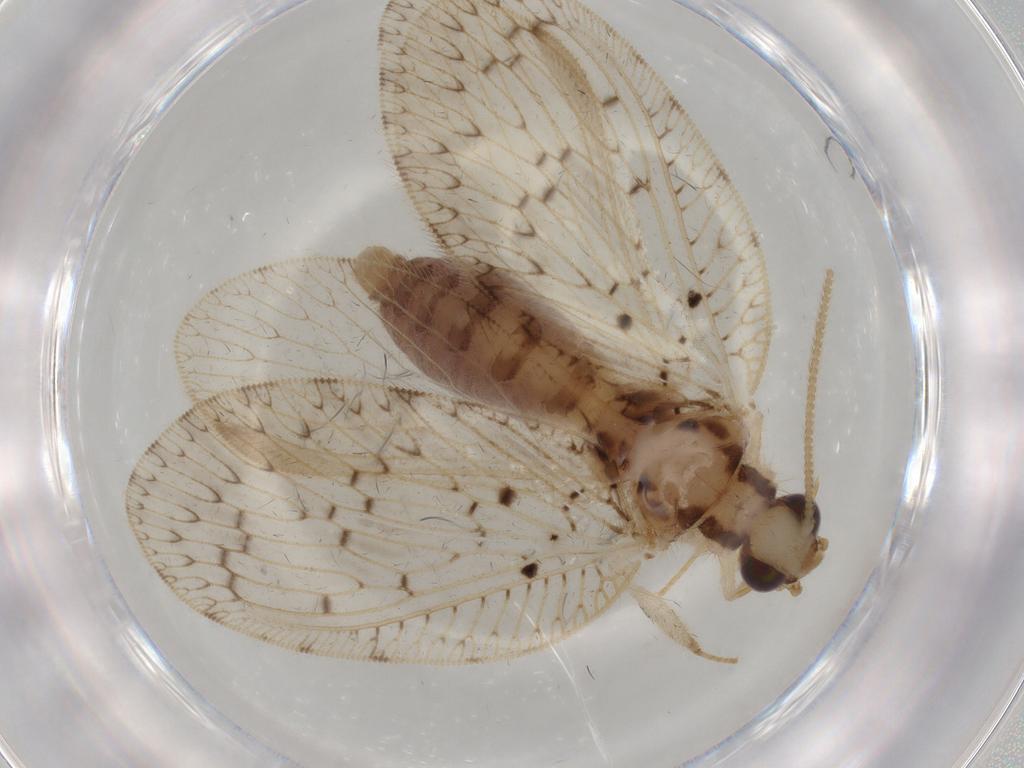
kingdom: Animalia
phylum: Arthropoda
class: Insecta
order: Neuroptera
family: Hemerobiidae
